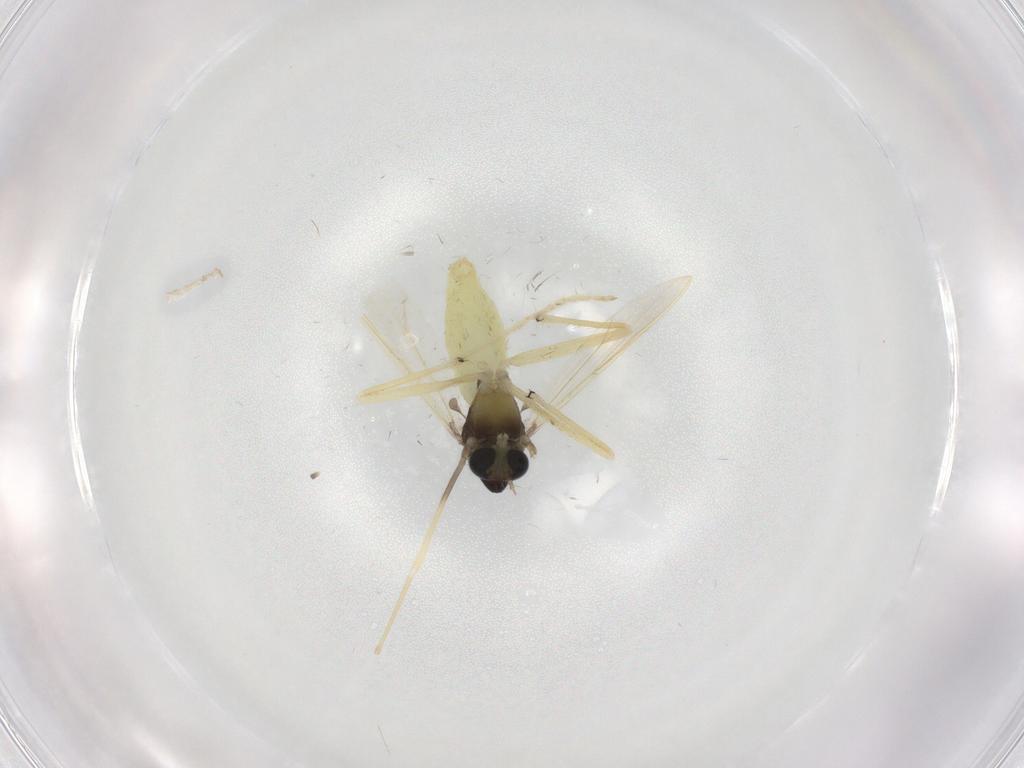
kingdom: Animalia
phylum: Arthropoda
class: Insecta
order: Diptera
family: Chironomidae
